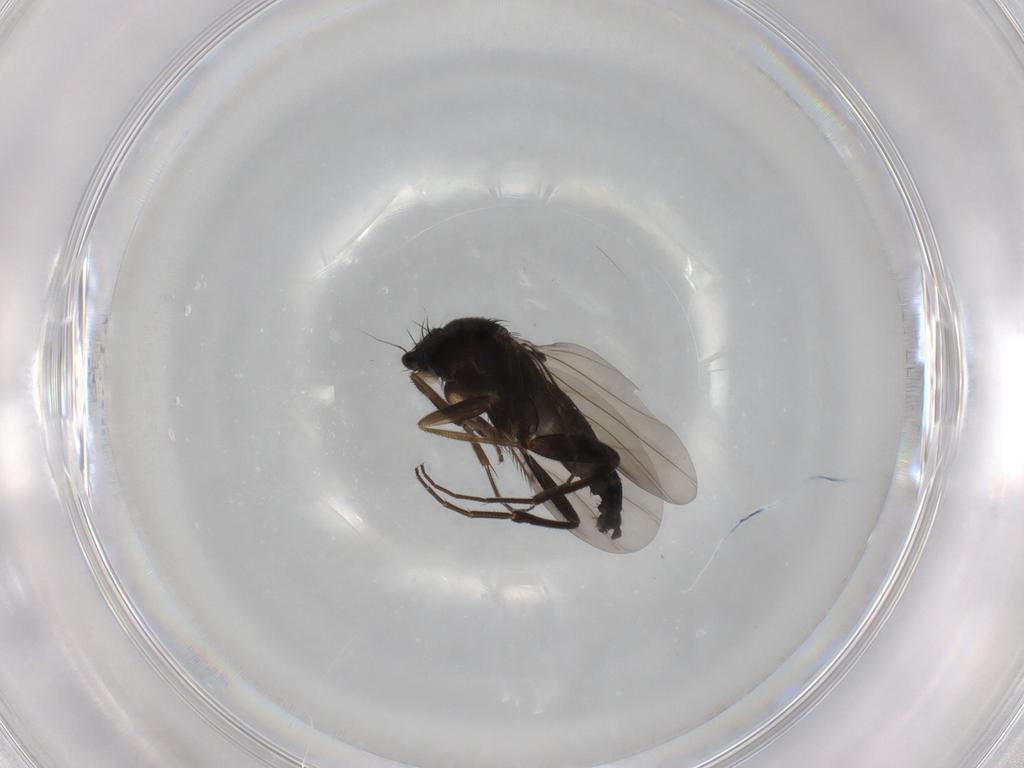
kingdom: Animalia
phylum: Arthropoda
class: Insecta
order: Diptera
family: Phoridae
